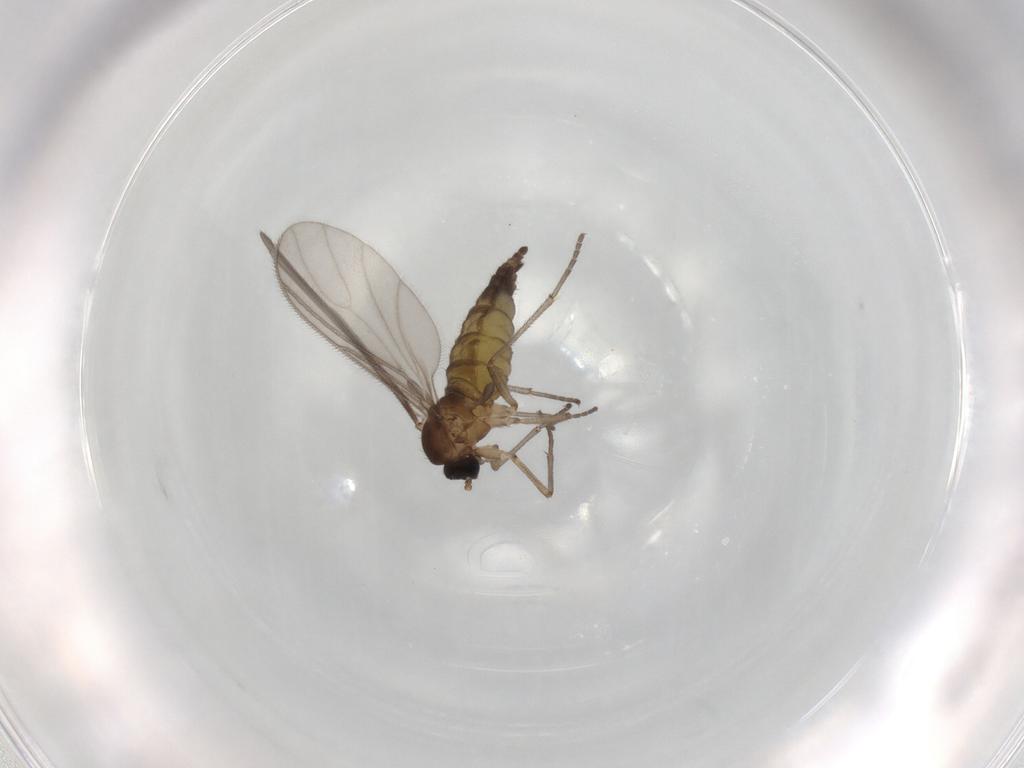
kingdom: Animalia
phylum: Arthropoda
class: Insecta
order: Diptera
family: Sciaridae
